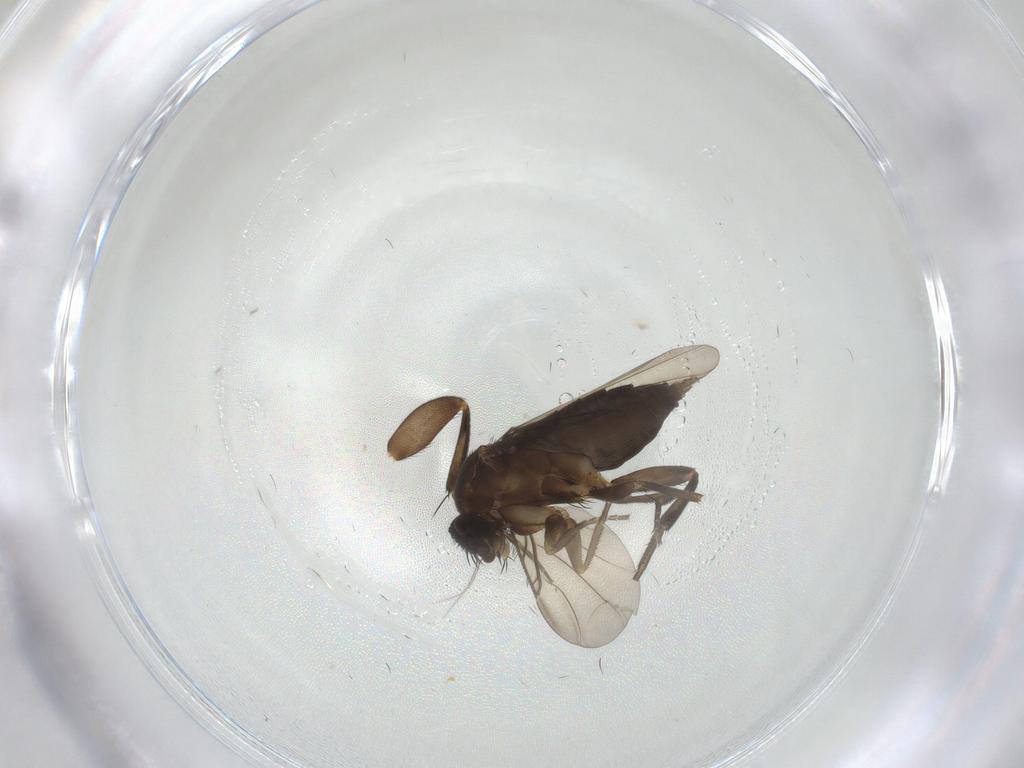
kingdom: Animalia
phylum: Arthropoda
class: Insecta
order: Diptera
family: Phoridae
